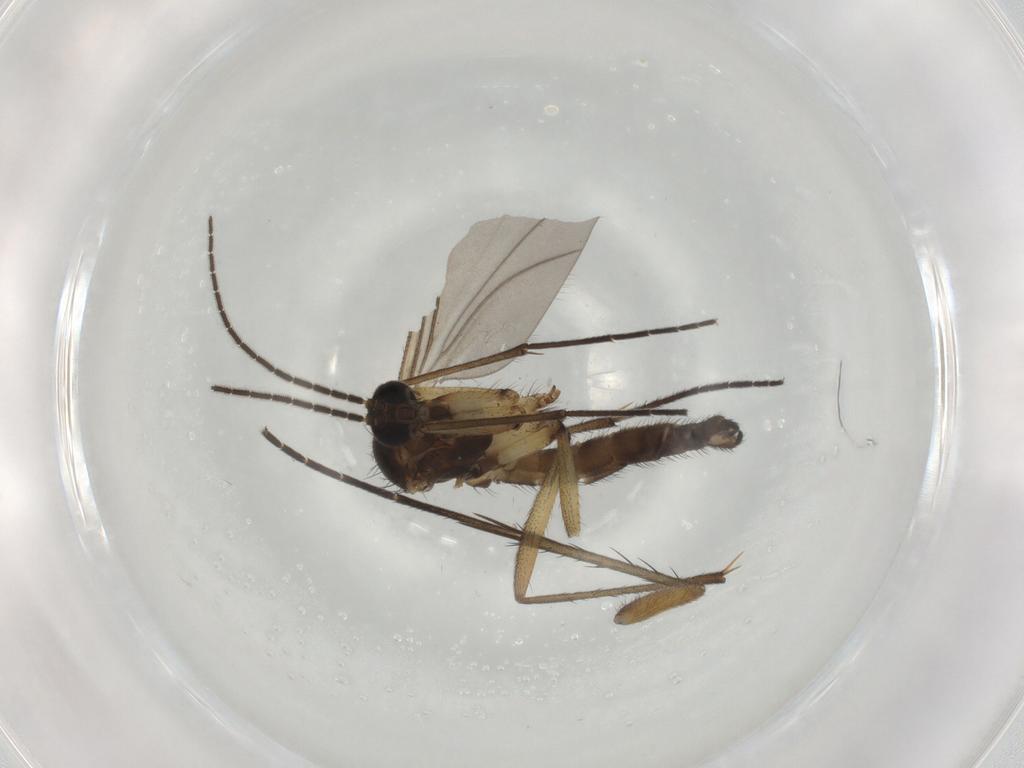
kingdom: Animalia
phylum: Arthropoda
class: Insecta
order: Diptera
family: Sciaridae
